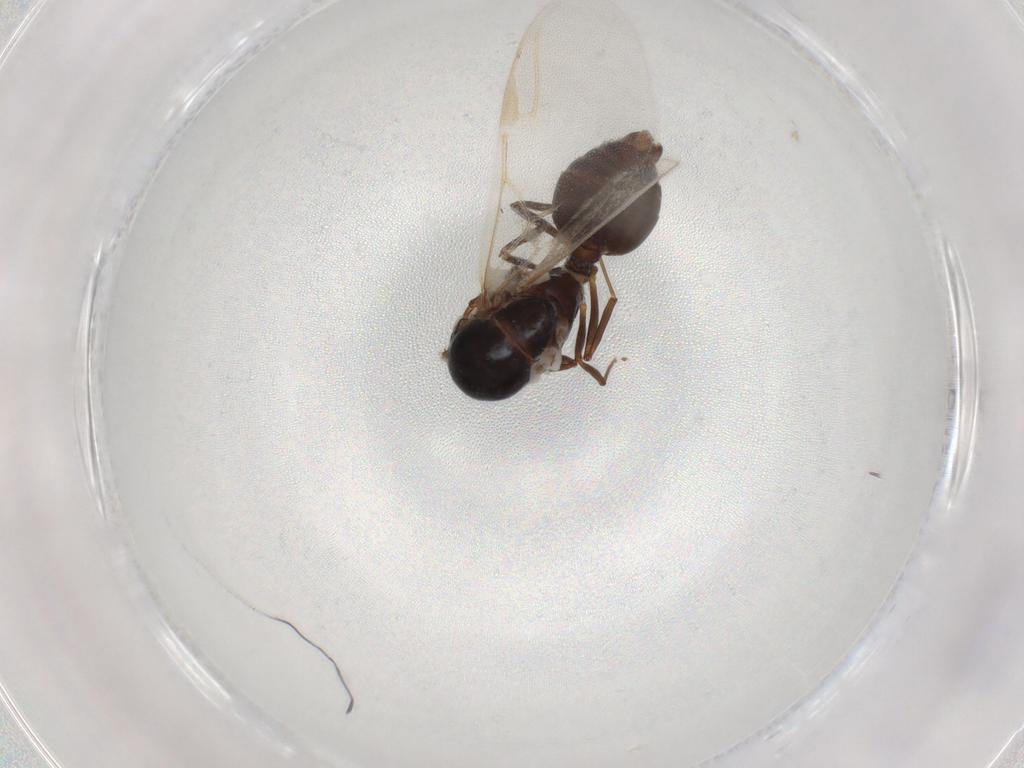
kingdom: Animalia
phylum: Arthropoda
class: Insecta
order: Hymenoptera
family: Formicidae
